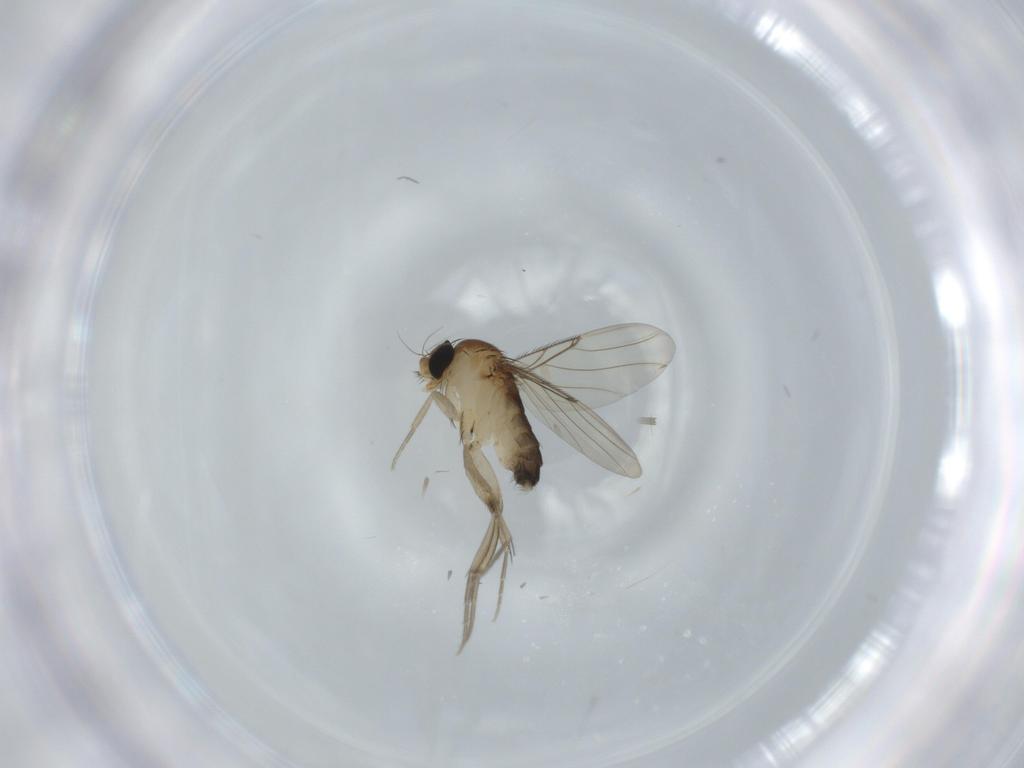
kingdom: Animalia
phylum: Arthropoda
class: Insecta
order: Diptera
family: Phoridae
